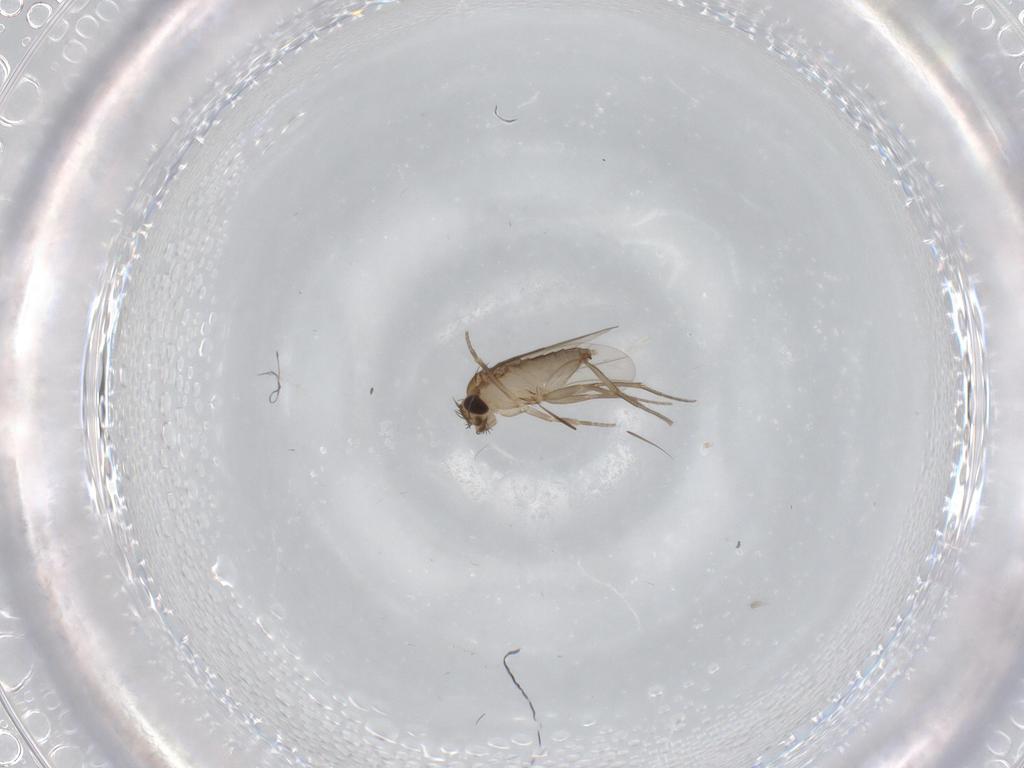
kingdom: Animalia
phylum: Arthropoda
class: Insecta
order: Diptera
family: Phoridae
